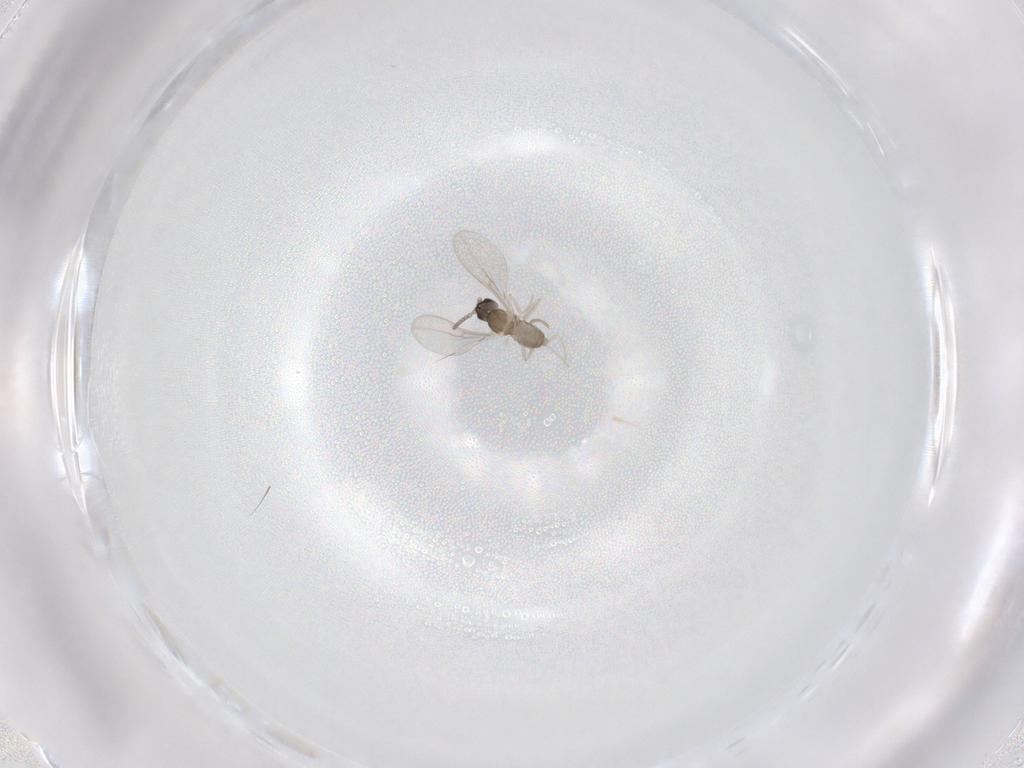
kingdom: Animalia
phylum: Arthropoda
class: Insecta
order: Diptera
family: Cecidomyiidae
